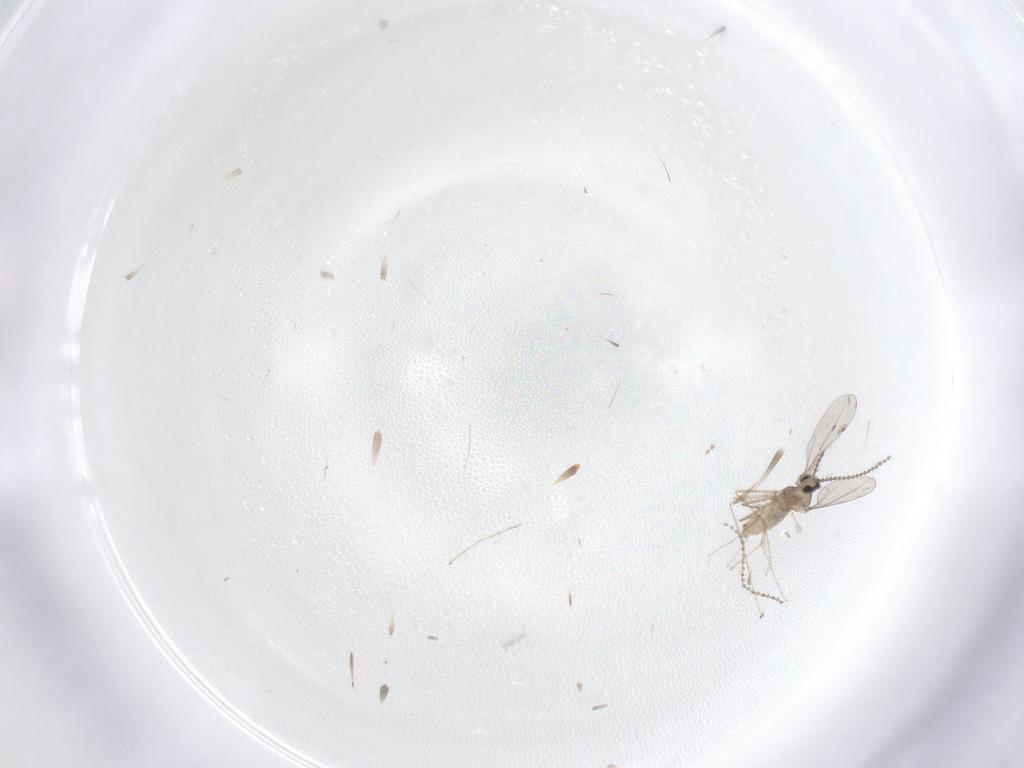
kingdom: Animalia
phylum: Arthropoda
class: Insecta
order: Diptera
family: Cecidomyiidae
